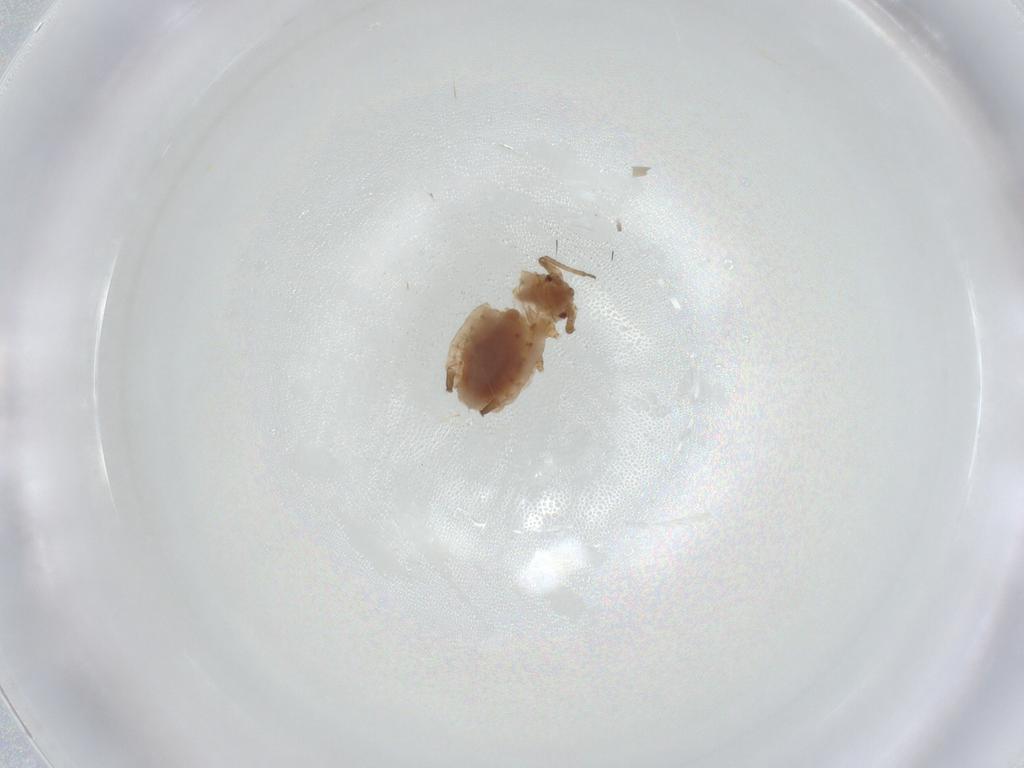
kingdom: Animalia
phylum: Arthropoda
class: Insecta
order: Hemiptera
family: Aphididae
